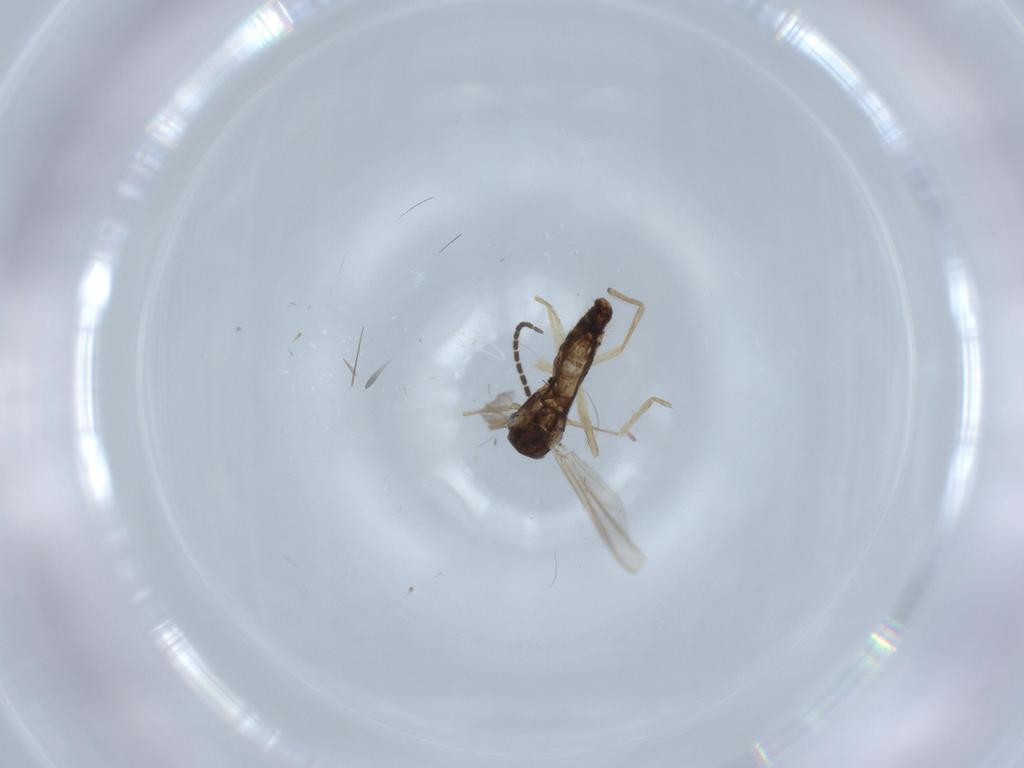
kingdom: Animalia
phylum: Arthropoda
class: Insecta
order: Diptera
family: Chironomidae
